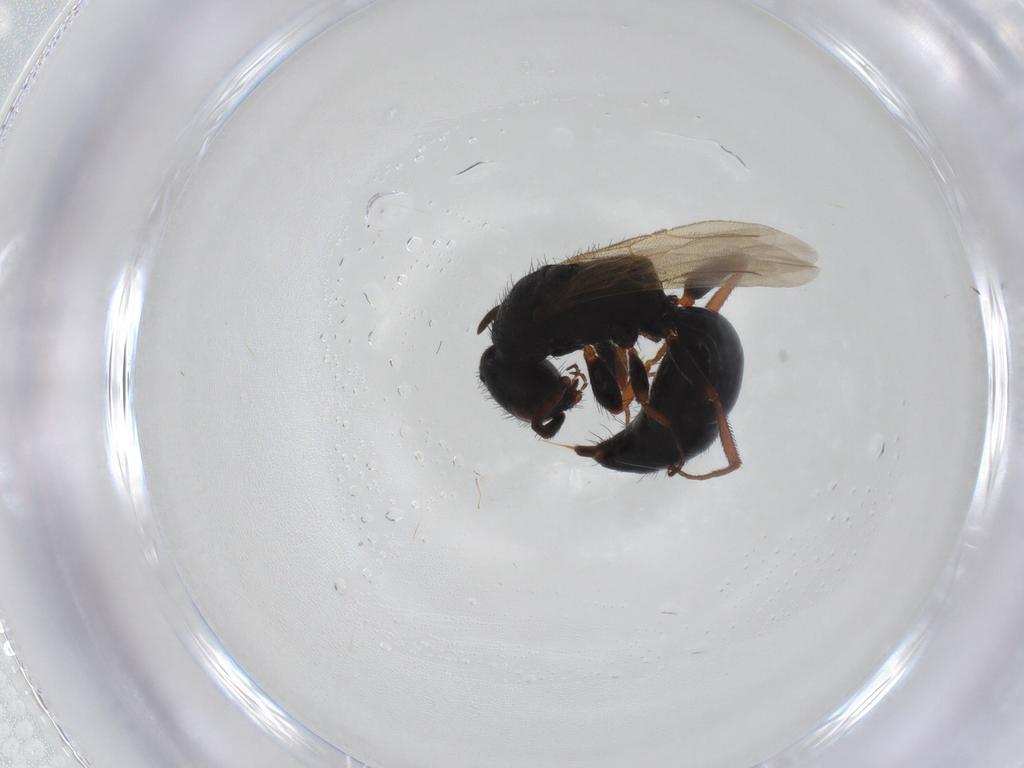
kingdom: Animalia
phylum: Arthropoda
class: Insecta
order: Hymenoptera
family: Bethylidae
